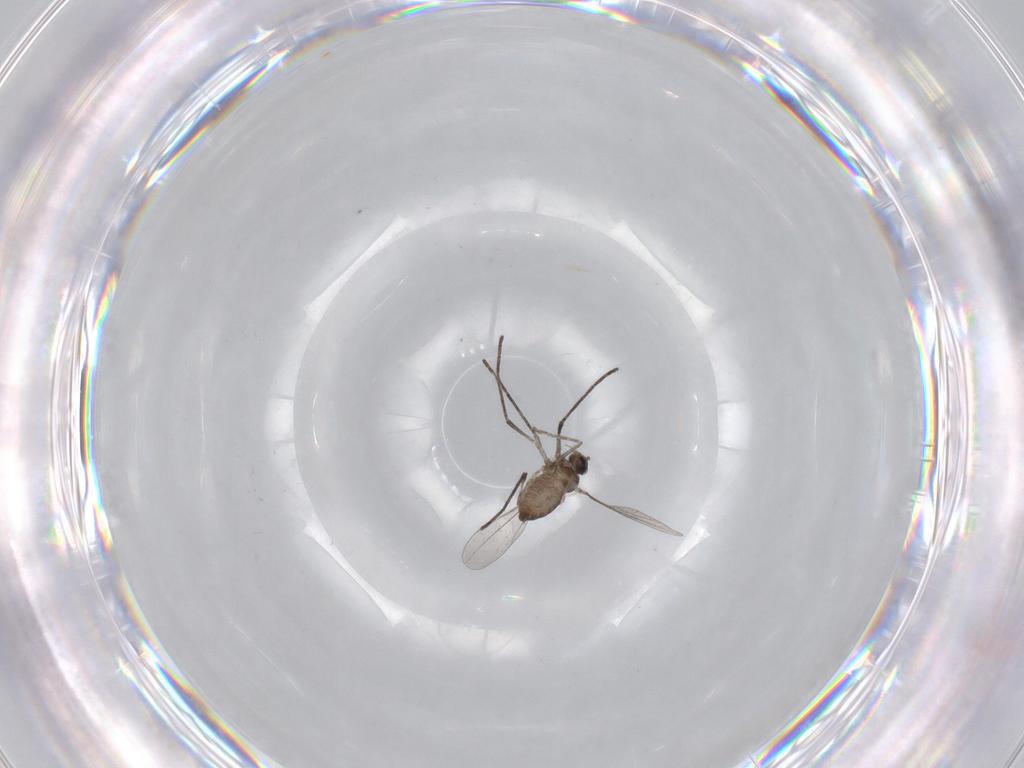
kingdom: Animalia
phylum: Arthropoda
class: Insecta
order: Diptera
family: Cecidomyiidae
